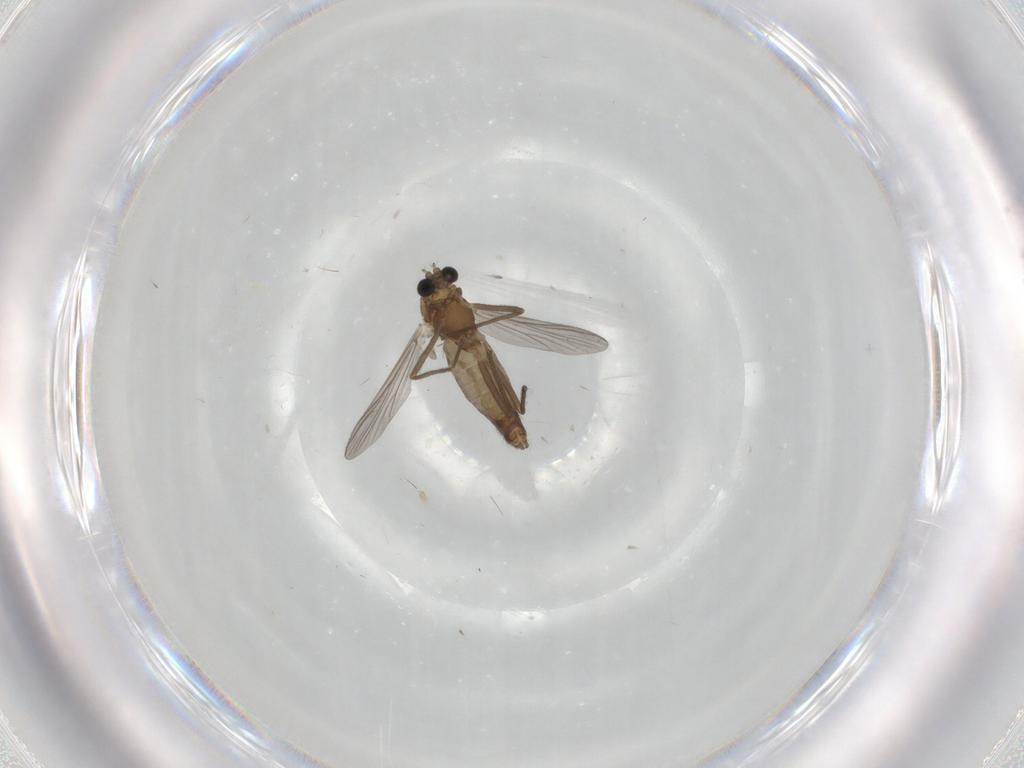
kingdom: Animalia
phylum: Arthropoda
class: Insecta
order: Diptera
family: Chironomidae
